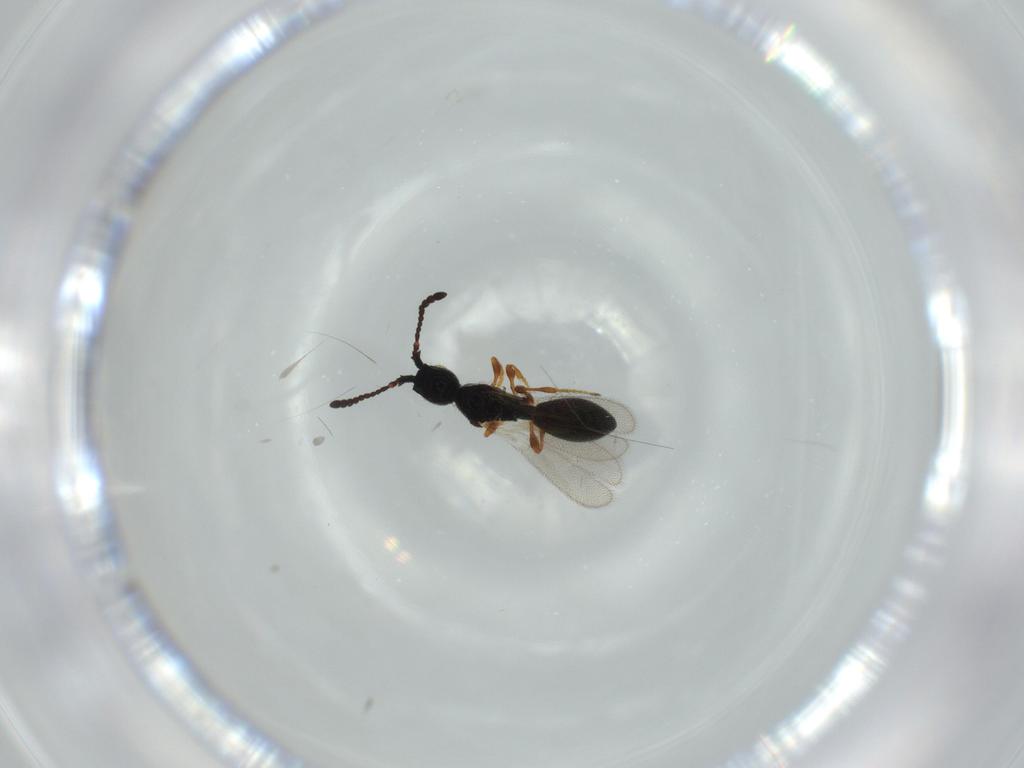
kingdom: Animalia
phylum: Arthropoda
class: Insecta
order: Hymenoptera
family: Diapriidae
